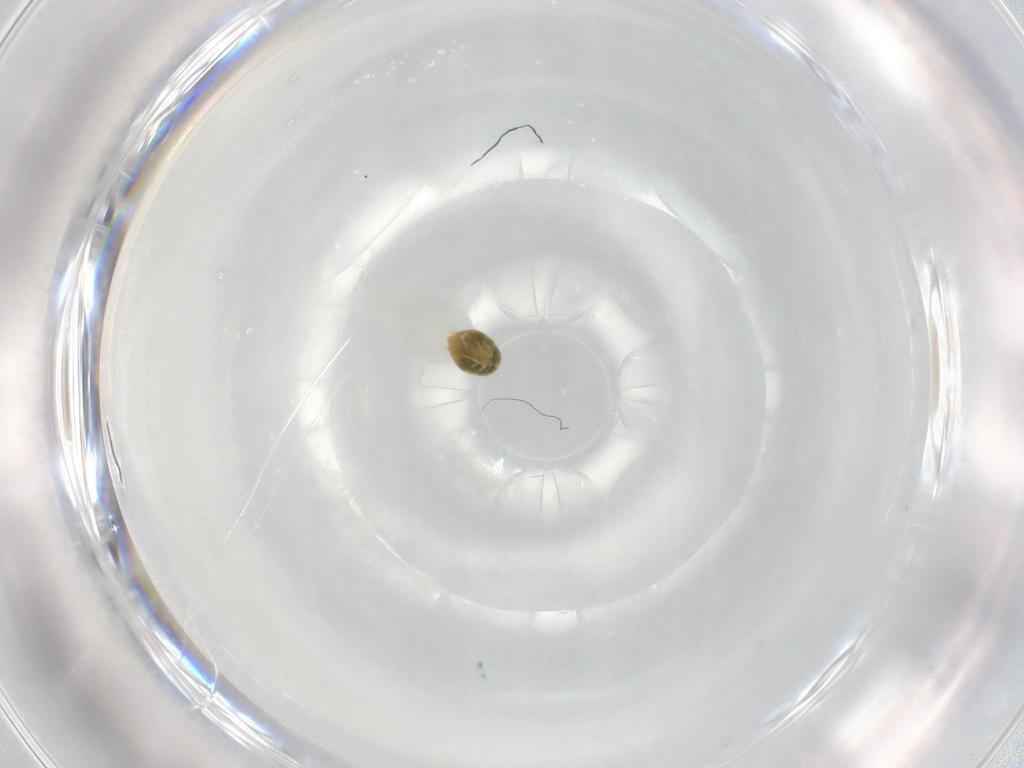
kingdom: Animalia
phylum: Arthropoda
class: Arachnida
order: Trombidiformes
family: Tetranychidae
